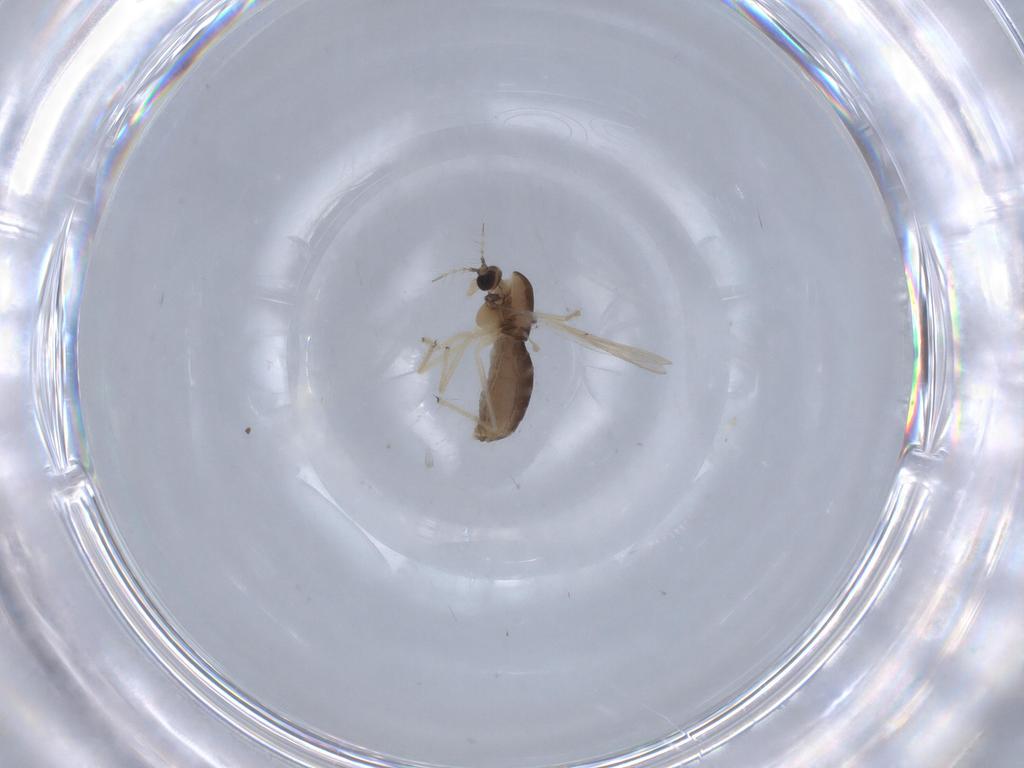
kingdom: Animalia
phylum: Arthropoda
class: Insecta
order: Diptera
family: Chironomidae
